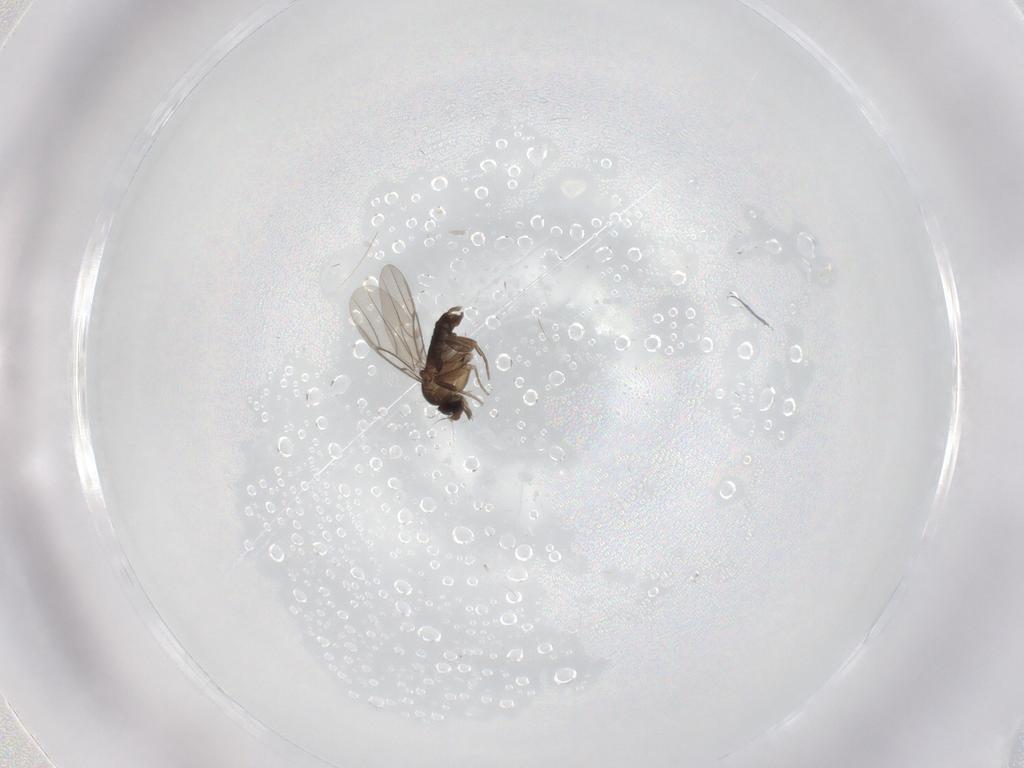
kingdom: Animalia
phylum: Arthropoda
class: Insecta
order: Diptera
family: Phoridae
